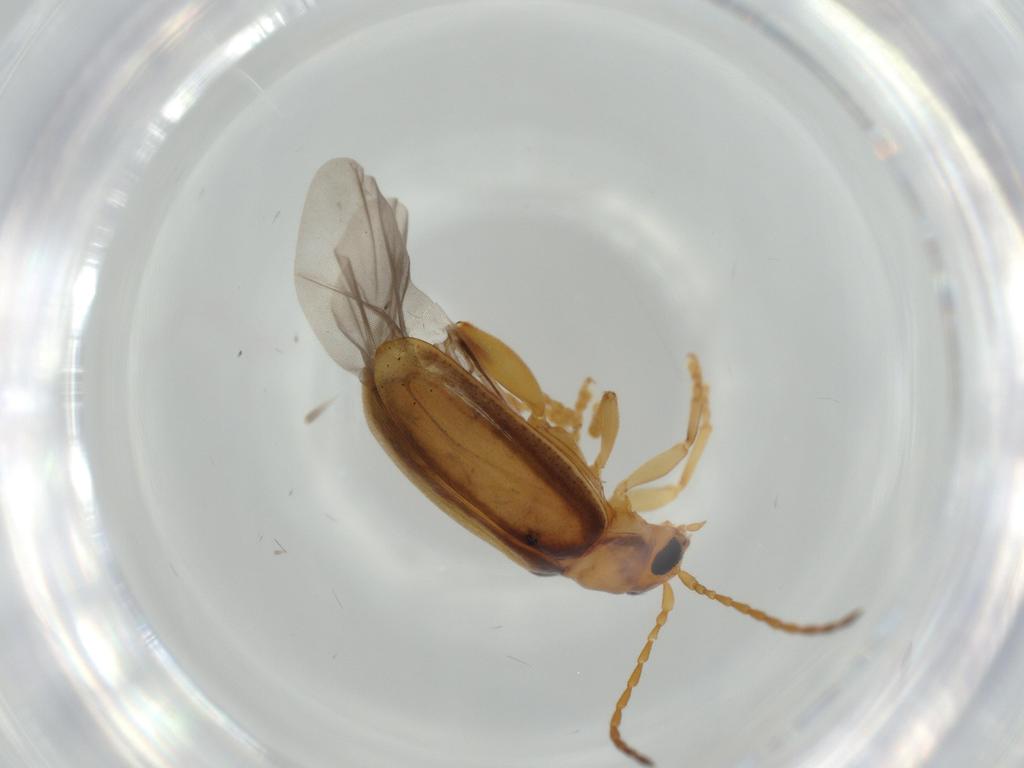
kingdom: Animalia
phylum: Arthropoda
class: Insecta
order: Coleoptera
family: Chrysomelidae
